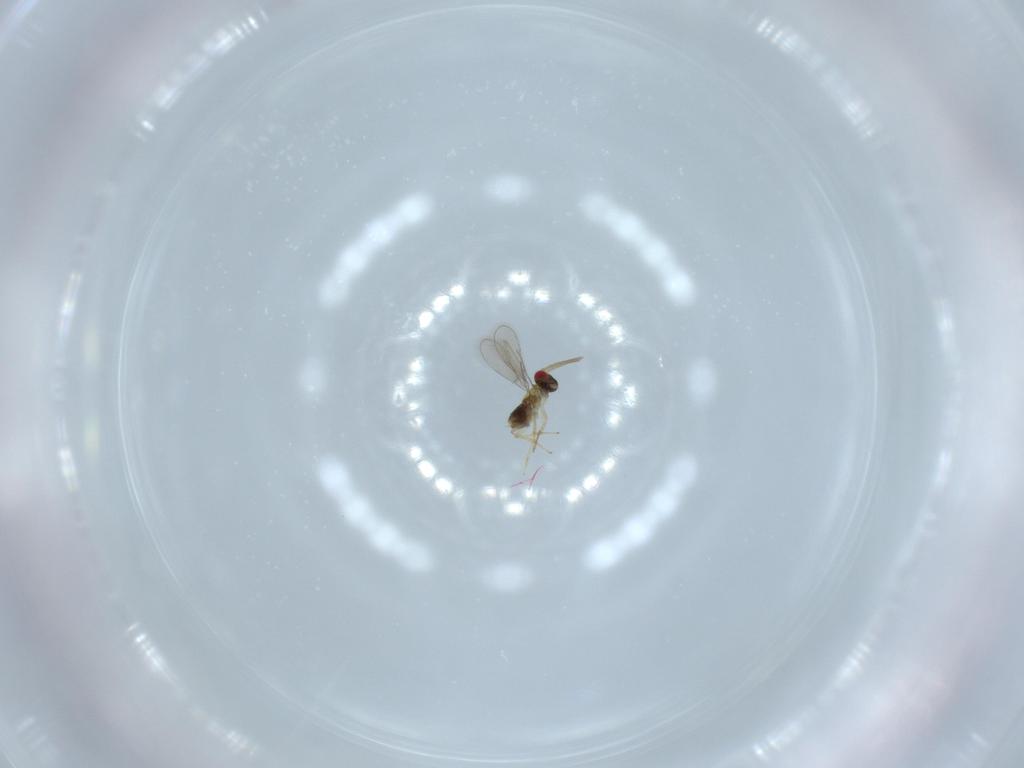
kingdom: Animalia
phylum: Arthropoda
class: Insecta
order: Hymenoptera
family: Aphelinidae
